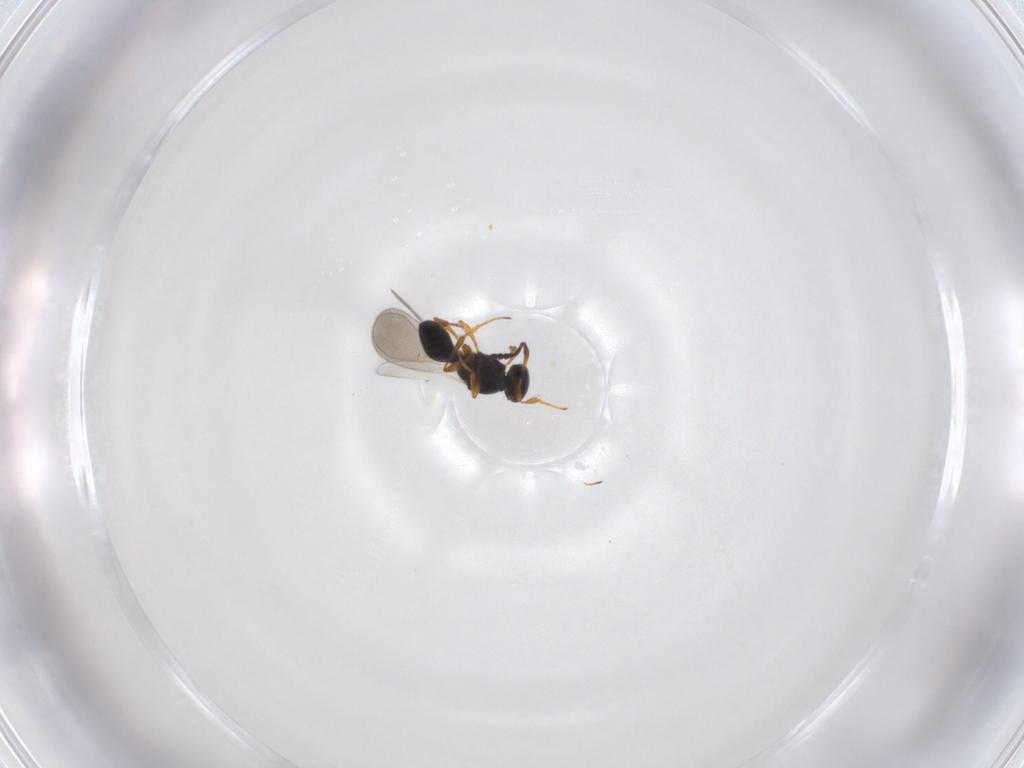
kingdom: Animalia
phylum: Arthropoda
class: Insecta
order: Hymenoptera
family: Platygastridae
